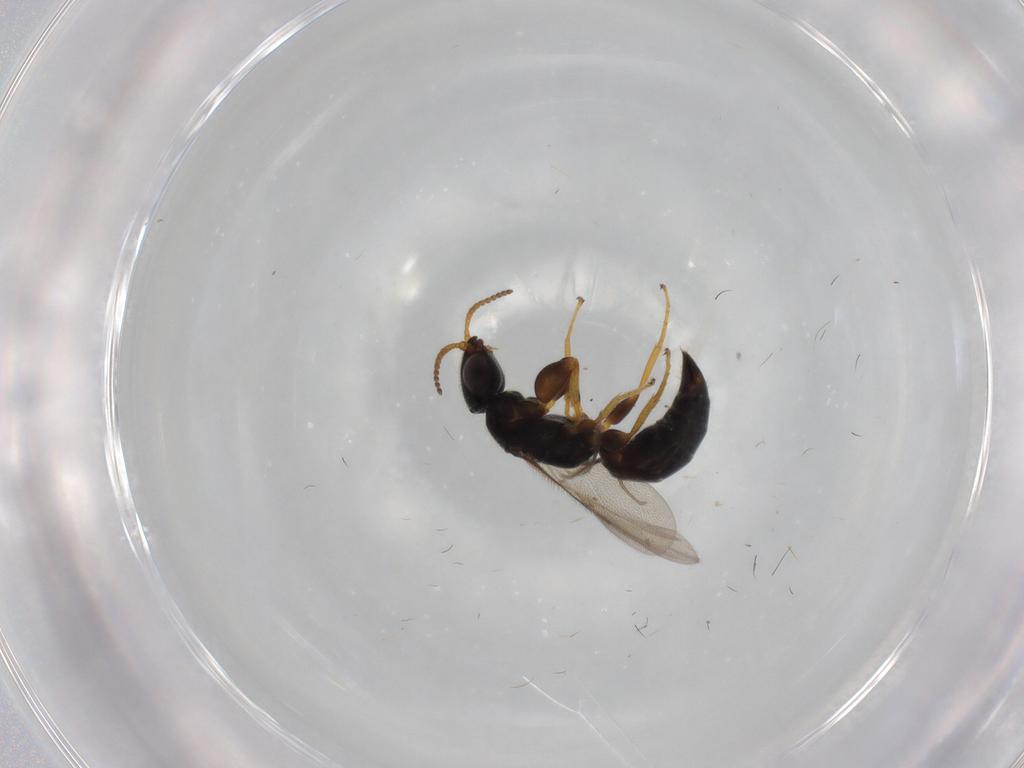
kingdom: Animalia
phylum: Arthropoda
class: Insecta
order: Hymenoptera
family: Bethylidae
